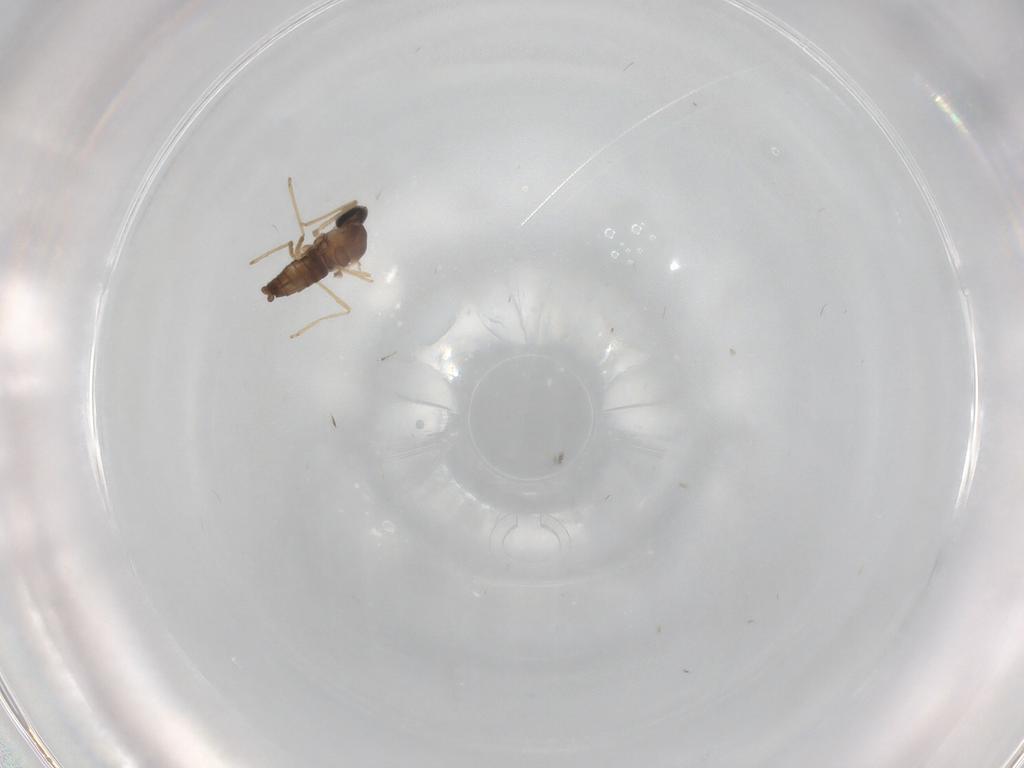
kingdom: Animalia
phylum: Arthropoda
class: Insecta
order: Diptera
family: Cecidomyiidae
